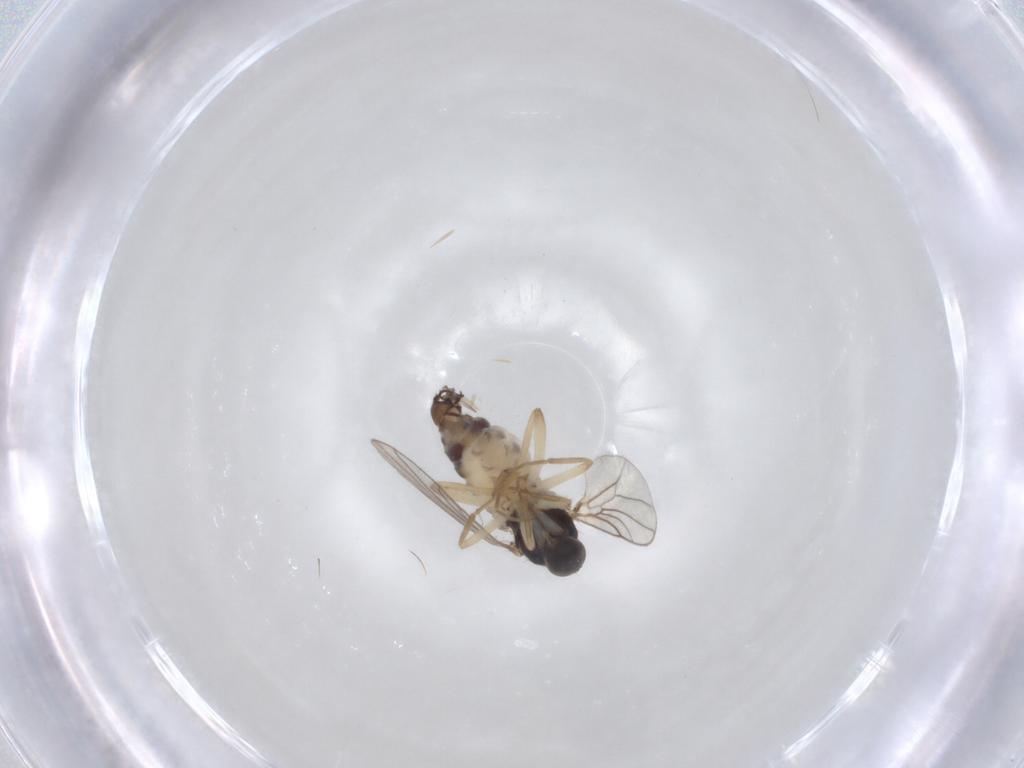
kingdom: Animalia
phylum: Arthropoda
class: Insecta
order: Diptera
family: Hybotidae
